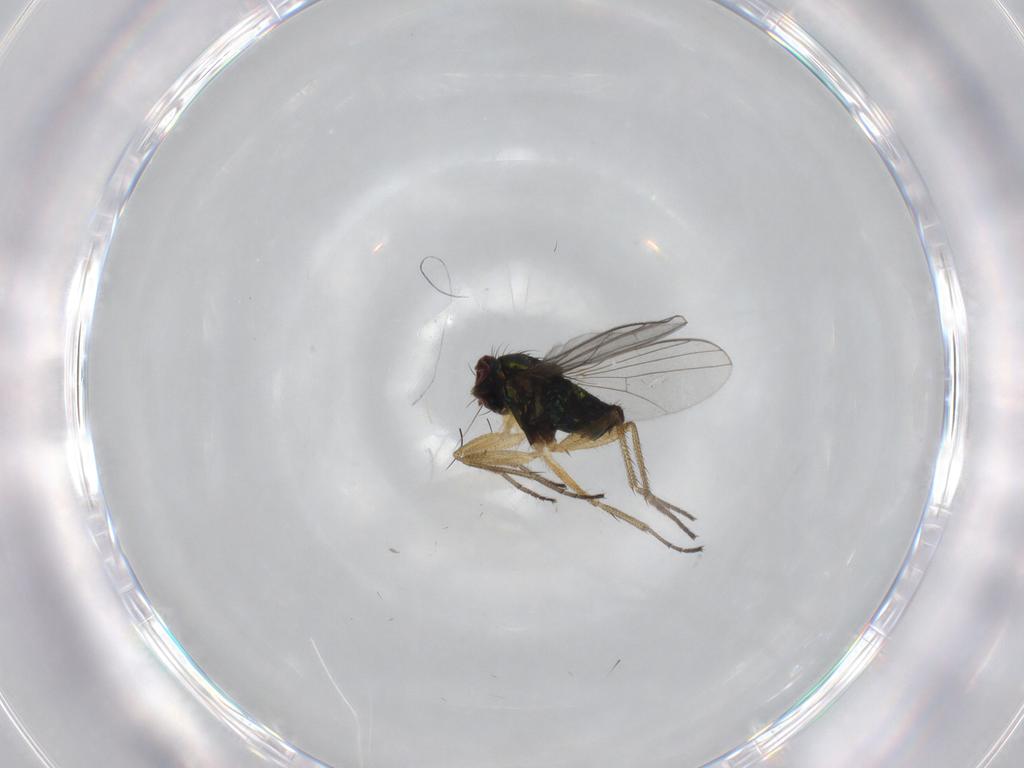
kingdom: Animalia
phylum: Arthropoda
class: Insecta
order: Diptera
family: Dolichopodidae
